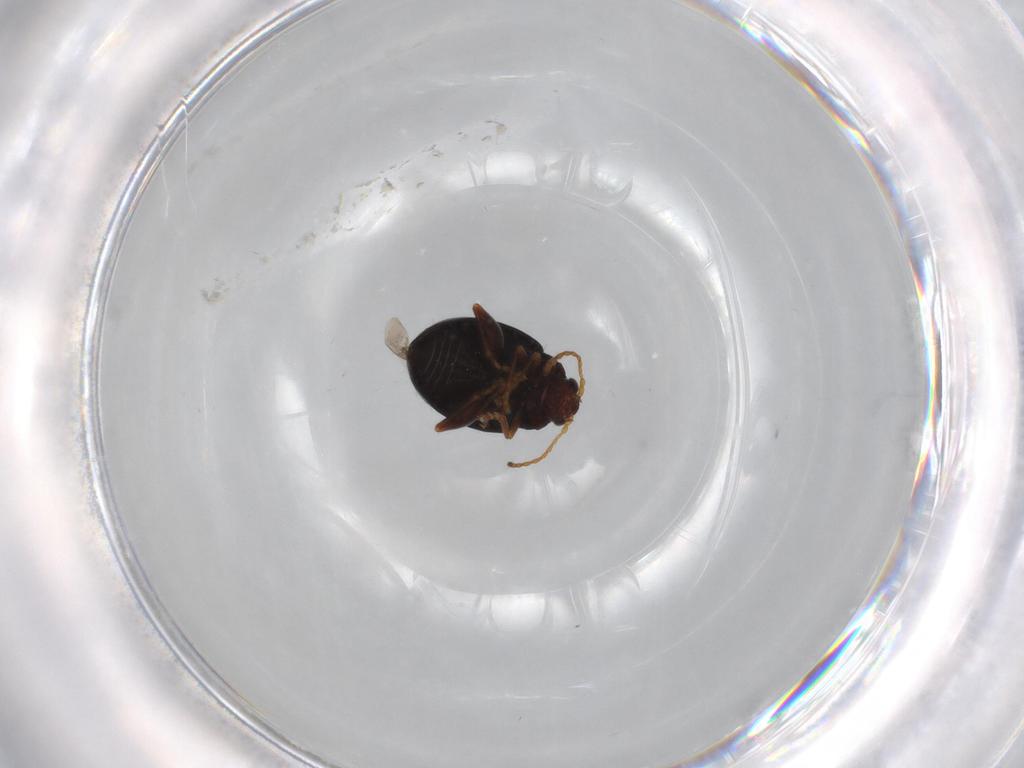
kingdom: Animalia
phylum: Arthropoda
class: Insecta
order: Coleoptera
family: Chrysomelidae
